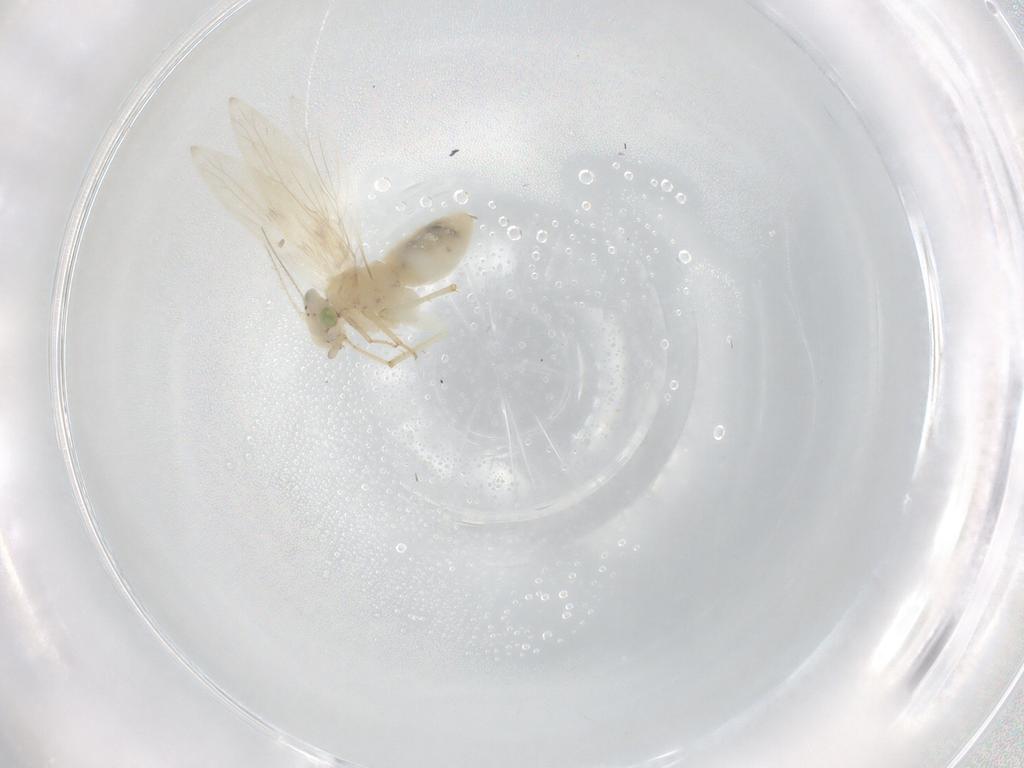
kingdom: Animalia
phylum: Arthropoda
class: Insecta
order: Psocodea
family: Lepidopsocidae
